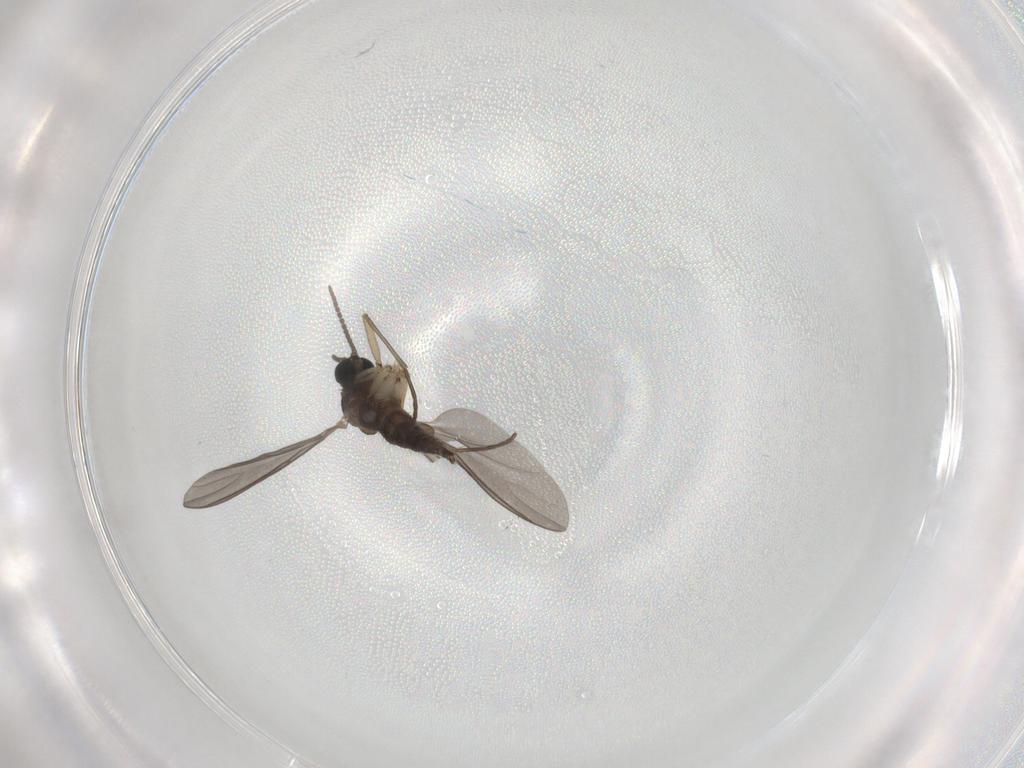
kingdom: Animalia
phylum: Arthropoda
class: Insecta
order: Diptera
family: Sciaridae
